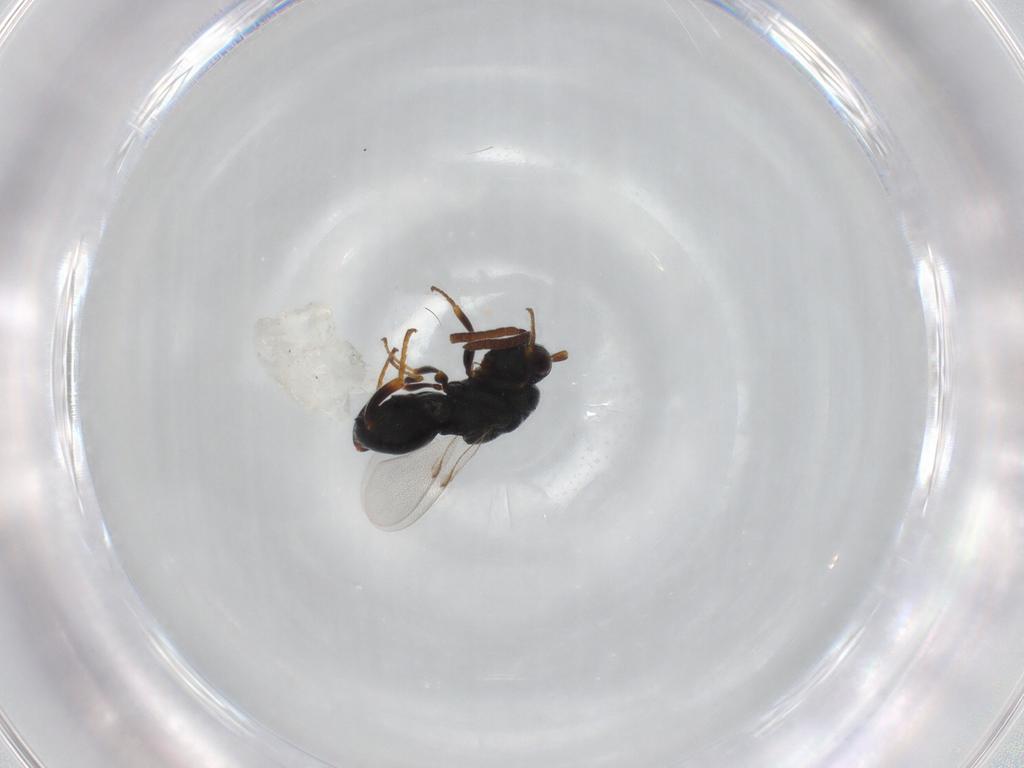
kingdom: Animalia
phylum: Arthropoda
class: Insecta
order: Hymenoptera
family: Chalcididae
